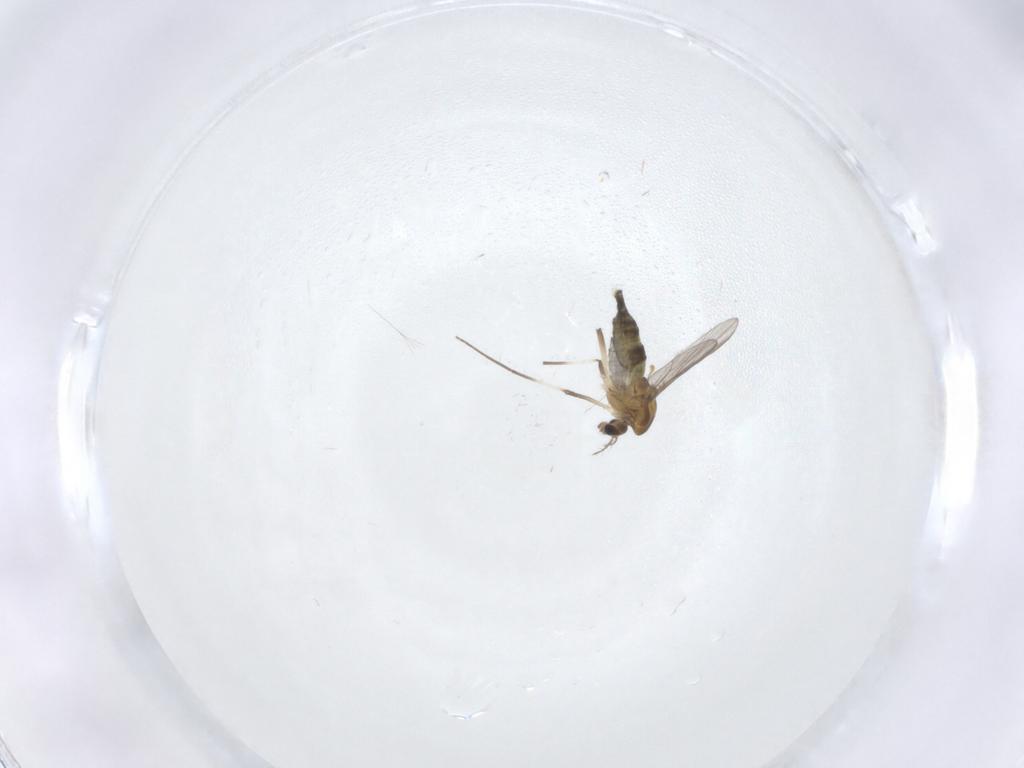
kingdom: Animalia
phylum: Arthropoda
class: Insecta
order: Diptera
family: Chironomidae
